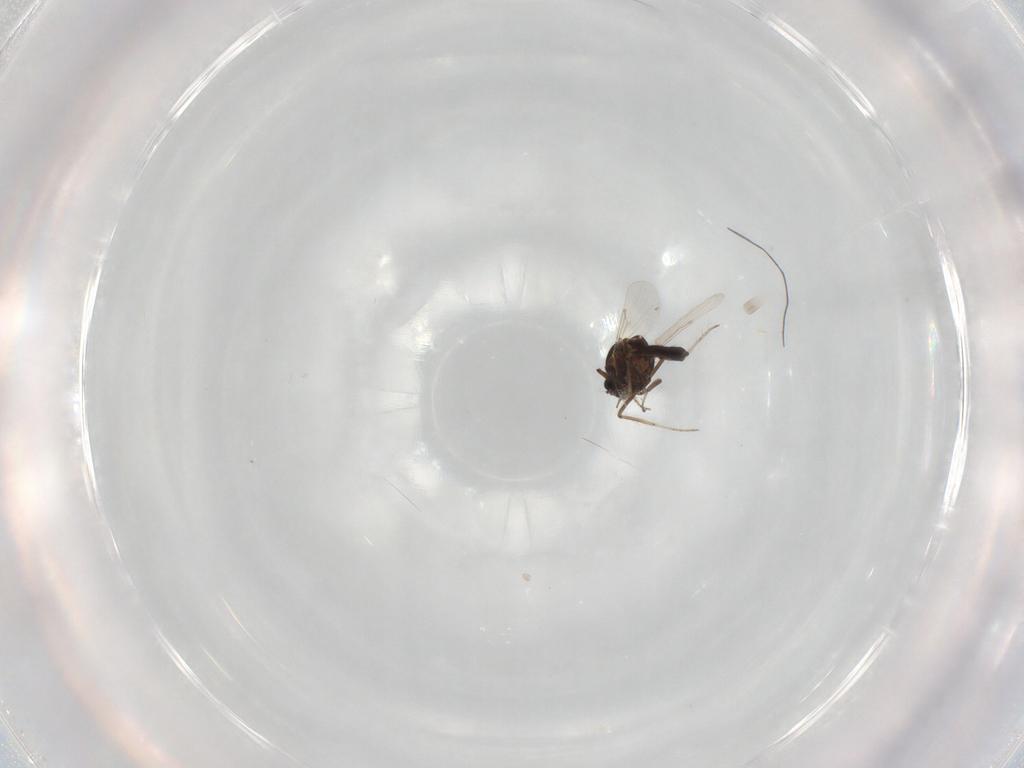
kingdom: Animalia
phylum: Arthropoda
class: Insecta
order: Diptera
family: Ceratopogonidae
